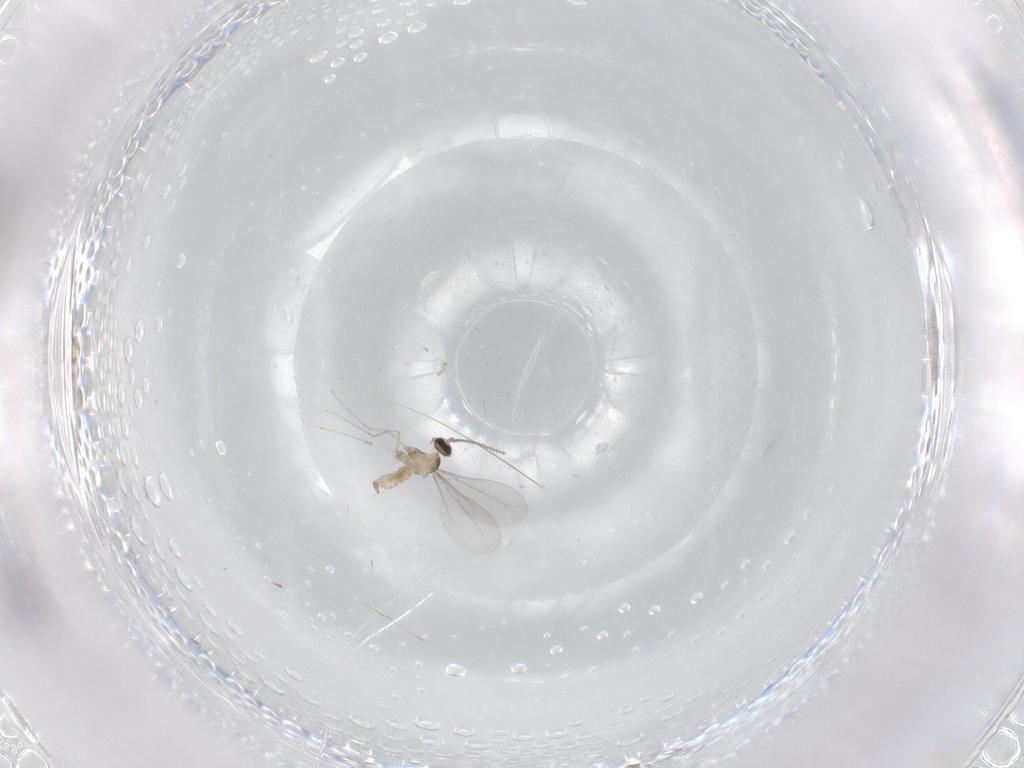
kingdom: Animalia
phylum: Arthropoda
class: Insecta
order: Diptera
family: Cecidomyiidae
